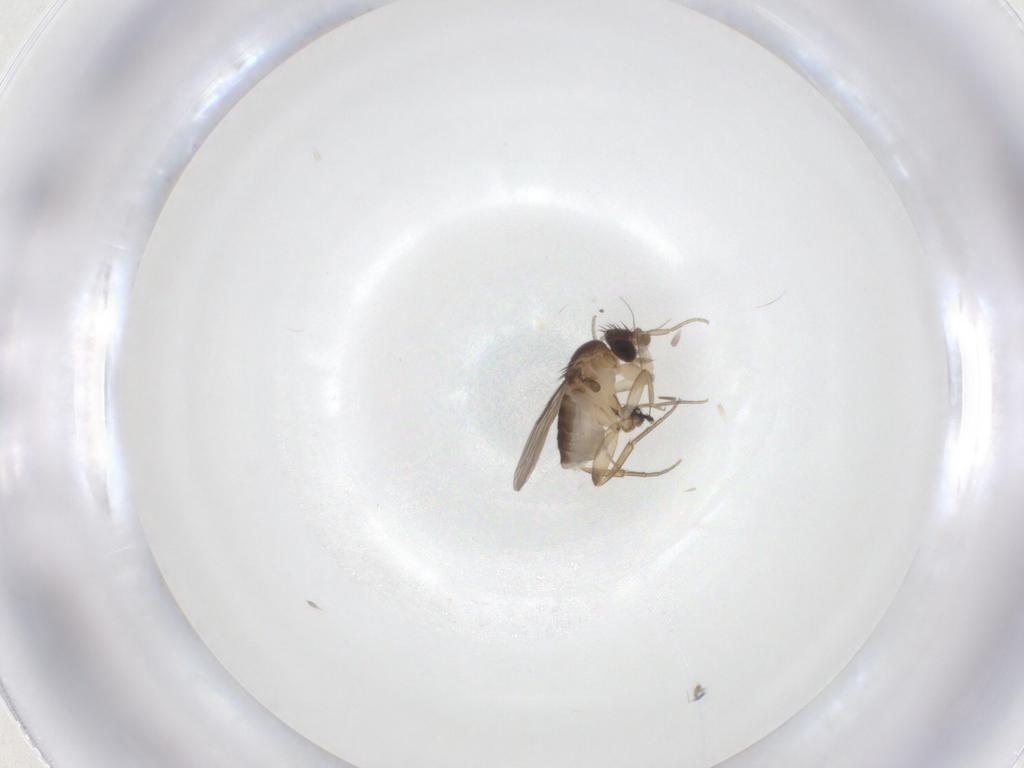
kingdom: Animalia
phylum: Arthropoda
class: Insecta
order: Diptera
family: Phoridae
